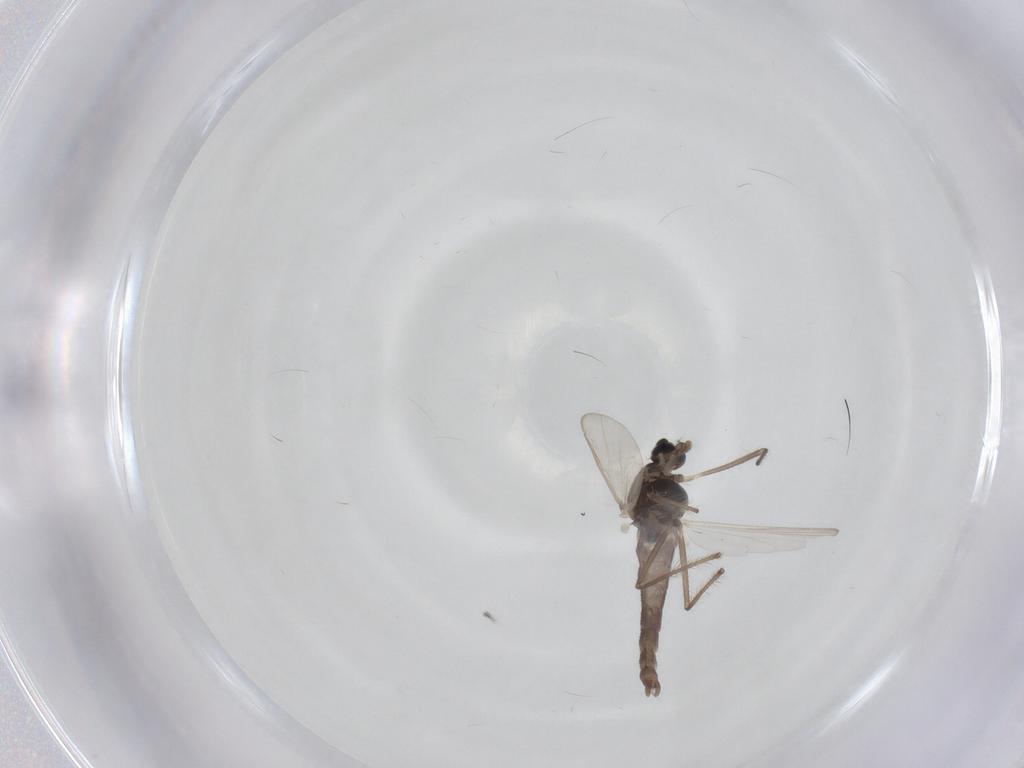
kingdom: Animalia
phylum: Arthropoda
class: Insecta
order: Diptera
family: Chironomidae
